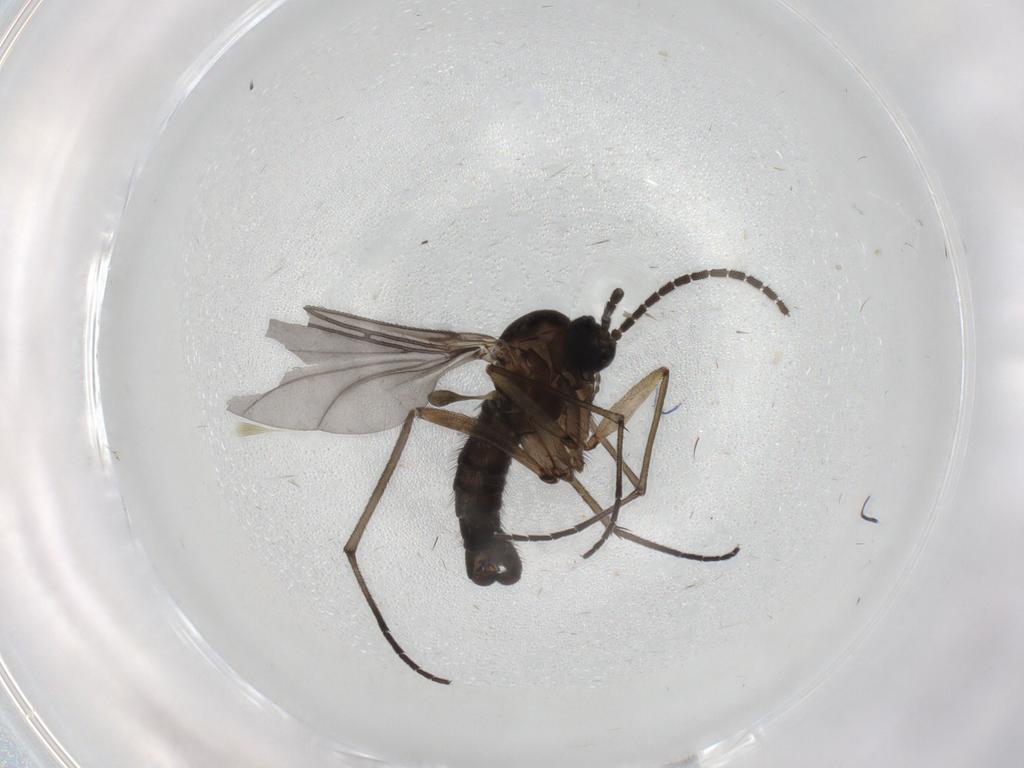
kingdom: Animalia
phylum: Arthropoda
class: Insecta
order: Diptera
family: Sciaridae
